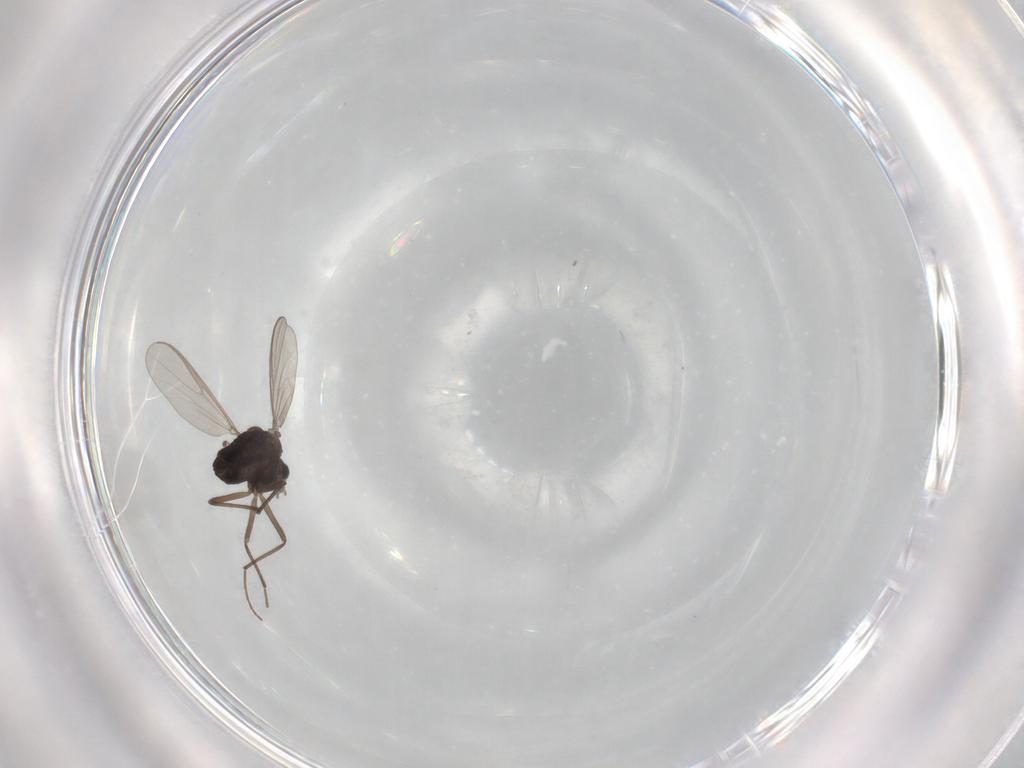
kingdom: Animalia
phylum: Arthropoda
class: Insecta
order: Diptera
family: Chironomidae
